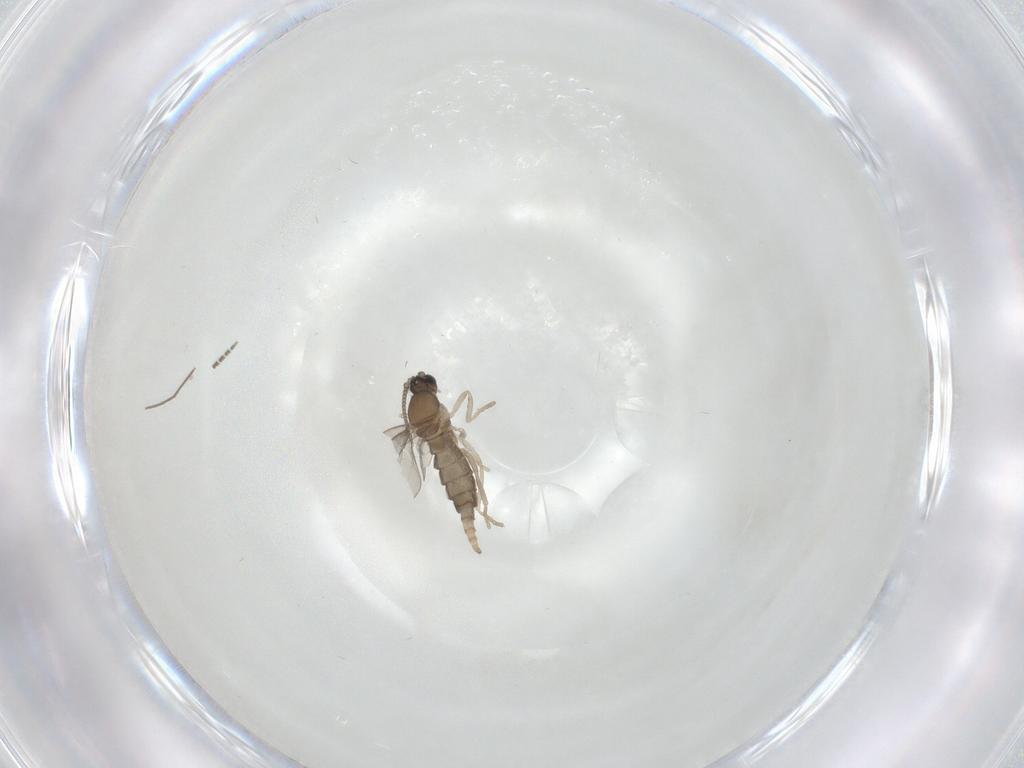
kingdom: Animalia
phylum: Arthropoda
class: Insecta
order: Diptera
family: Cecidomyiidae
